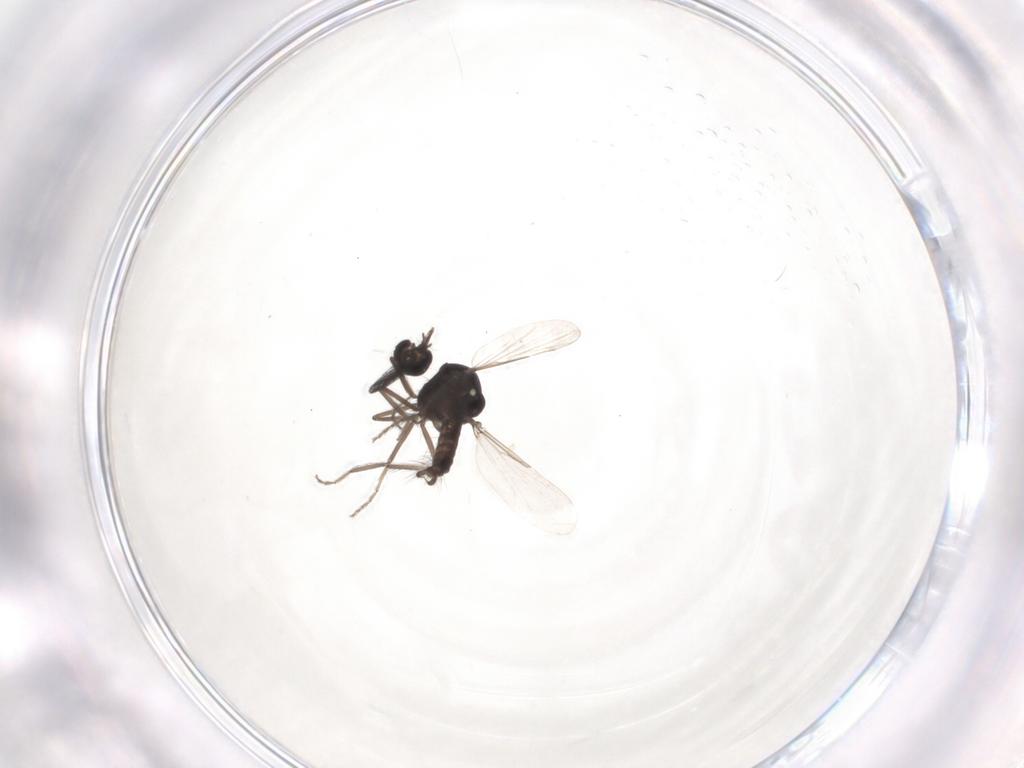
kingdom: Animalia
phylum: Arthropoda
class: Insecta
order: Diptera
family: Ceratopogonidae
